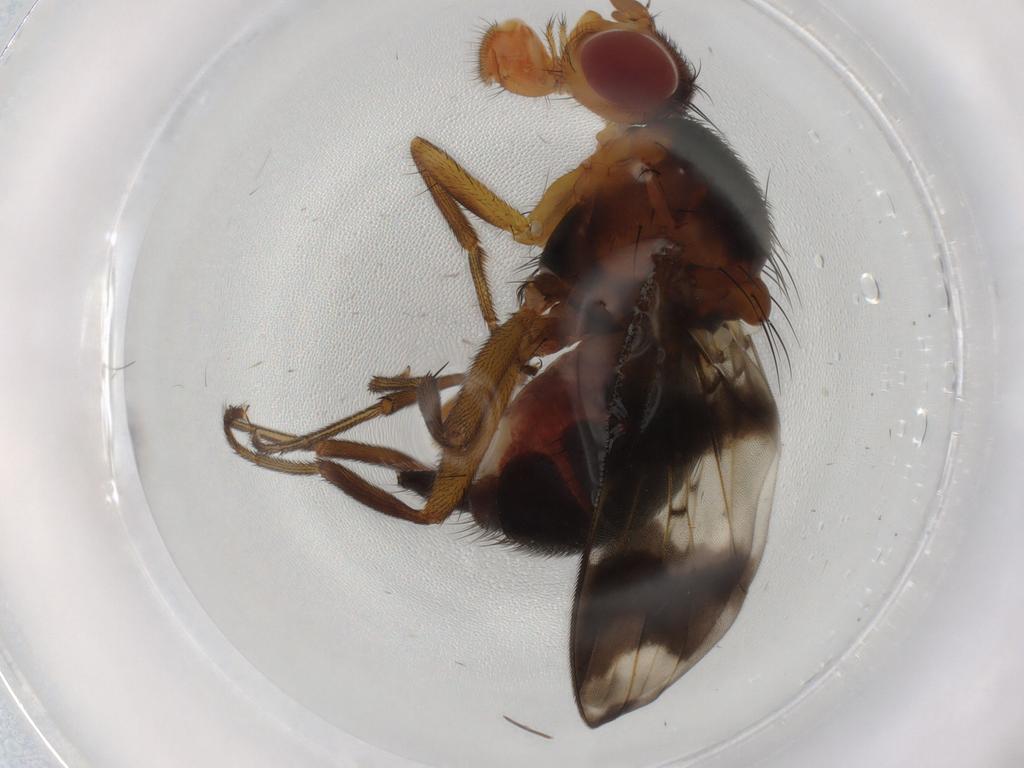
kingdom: Animalia
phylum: Arthropoda
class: Insecta
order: Diptera
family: Richardiidae
